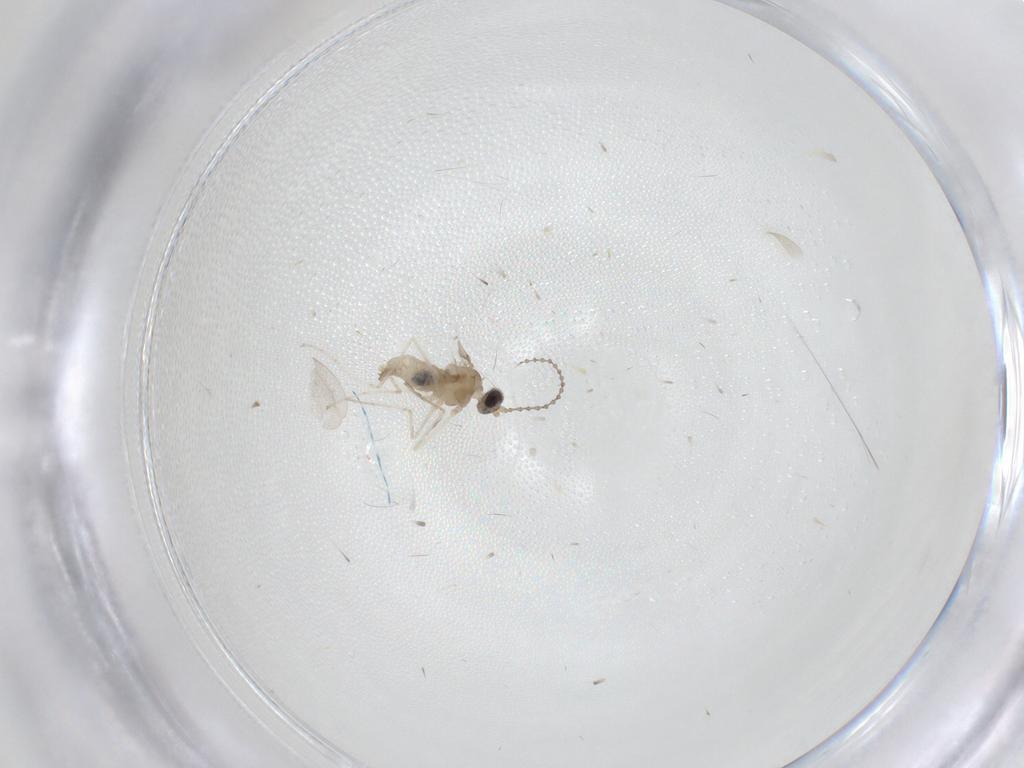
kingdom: Animalia
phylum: Arthropoda
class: Insecta
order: Diptera
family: Cecidomyiidae
